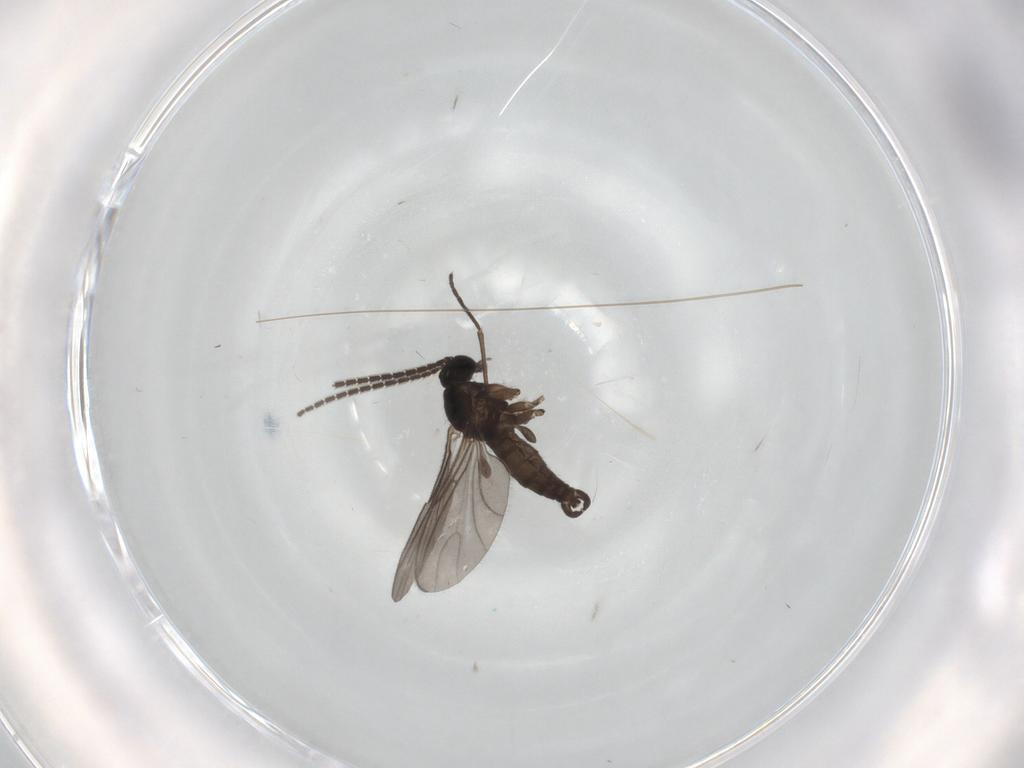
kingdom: Animalia
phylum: Arthropoda
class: Insecta
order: Diptera
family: Sciaridae
